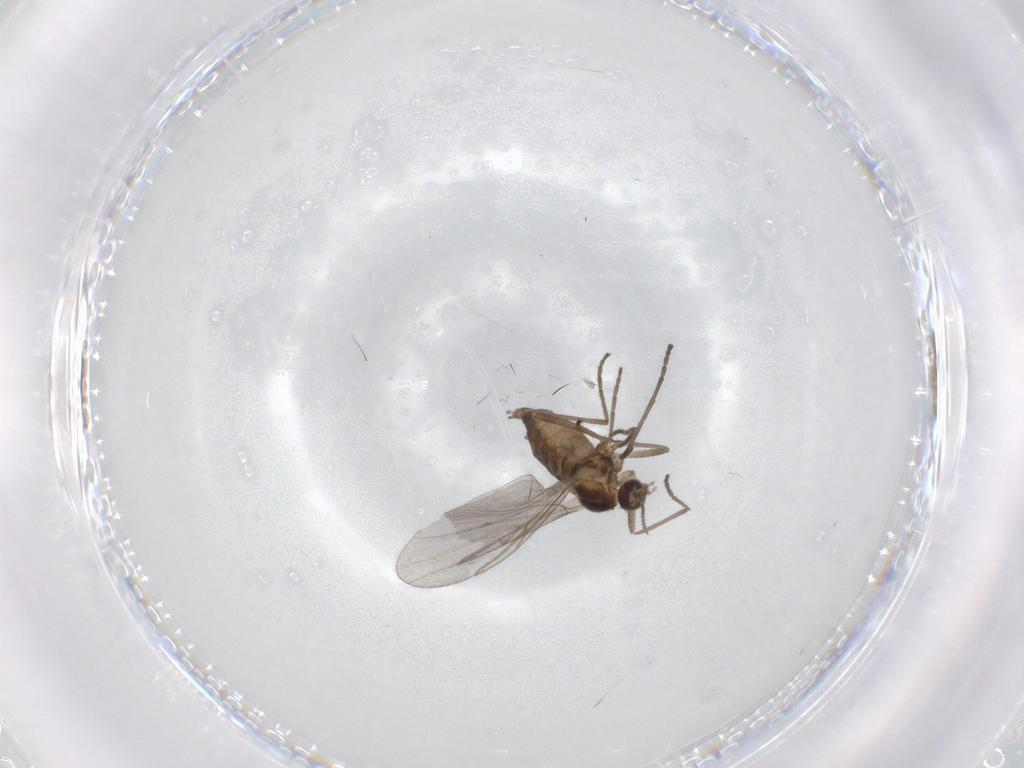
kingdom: Animalia
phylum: Arthropoda
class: Insecta
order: Diptera
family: Cecidomyiidae
